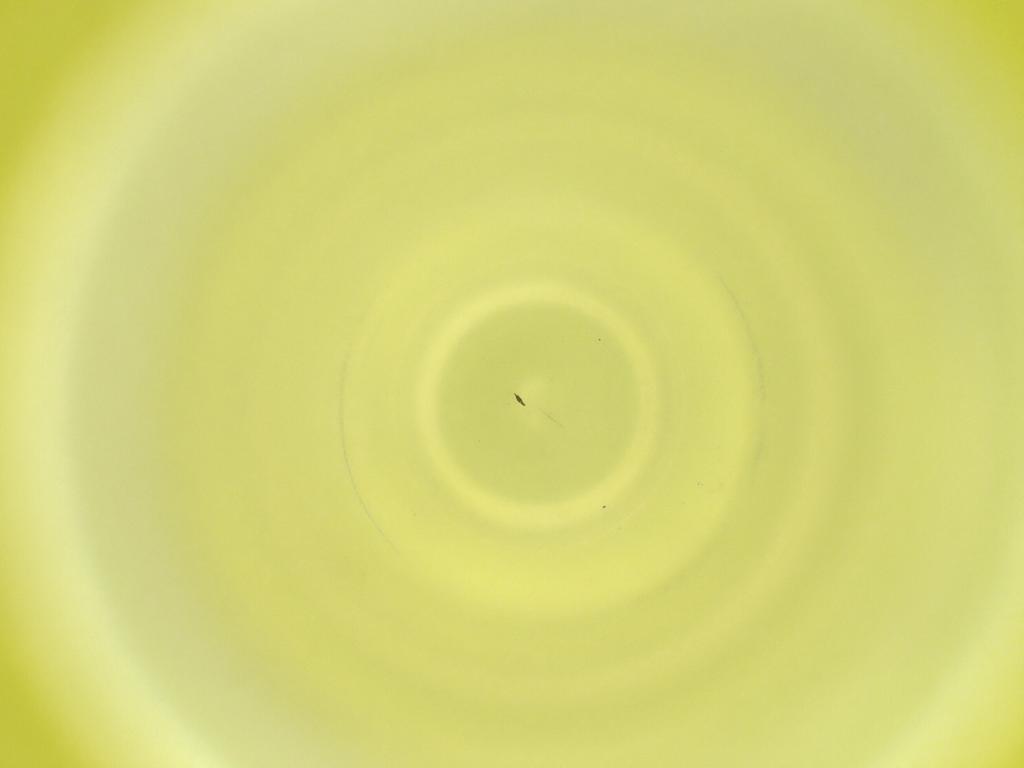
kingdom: Animalia
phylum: Arthropoda
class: Insecta
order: Diptera
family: Cecidomyiidae
